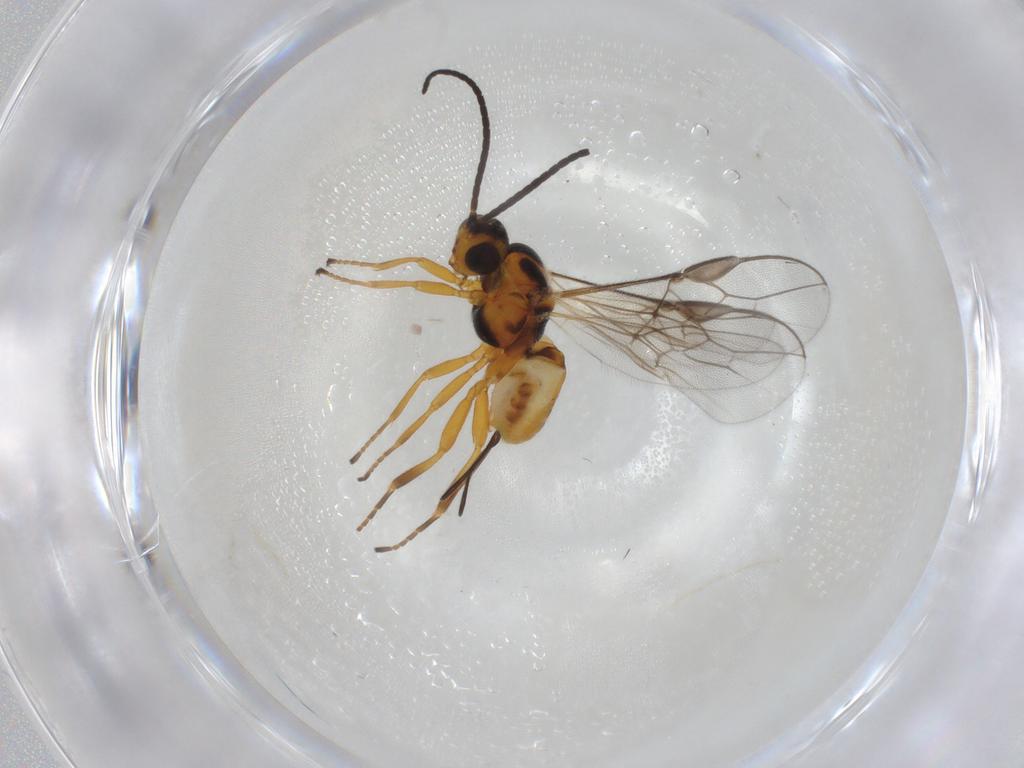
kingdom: Animalia
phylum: Arthropoda
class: Insecta
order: Hymenoptera
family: Braconidae
